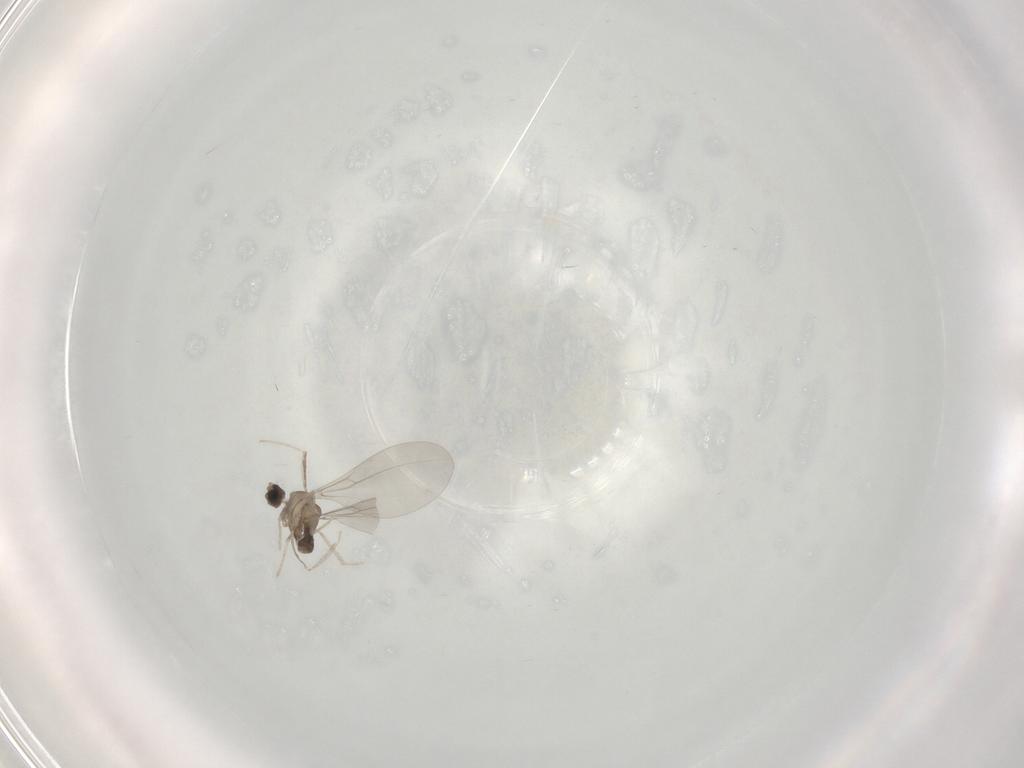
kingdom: Animalia
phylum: Arthropoda
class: Insecta
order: Diptera
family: Cecidomyiidae
